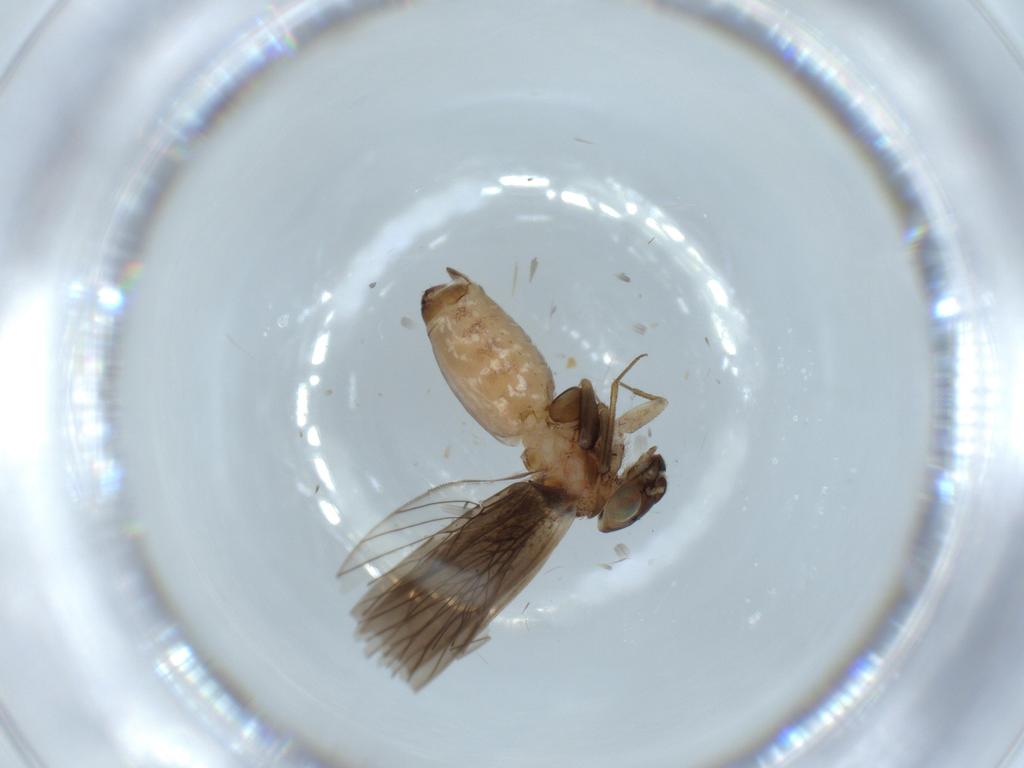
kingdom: Animalia
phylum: Arthropoda
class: Insecta
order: Psocodea
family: Lepidopsocidae
